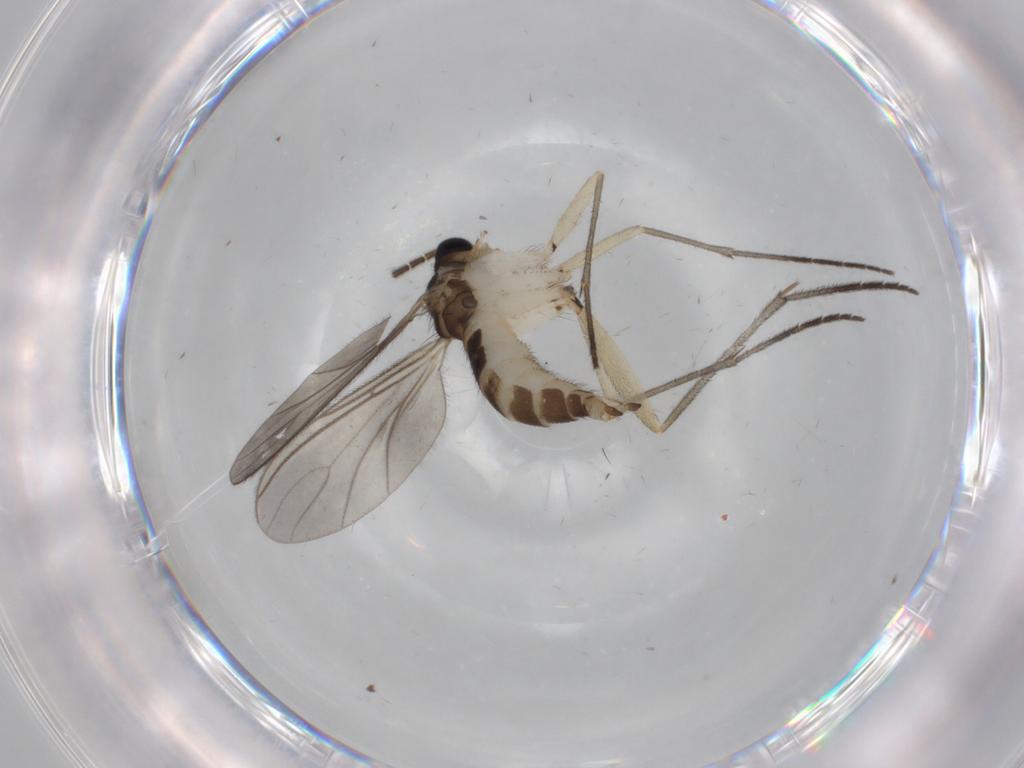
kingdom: Animalia
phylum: Arthropoda
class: Insecta
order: Diptera
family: Sciaridae
